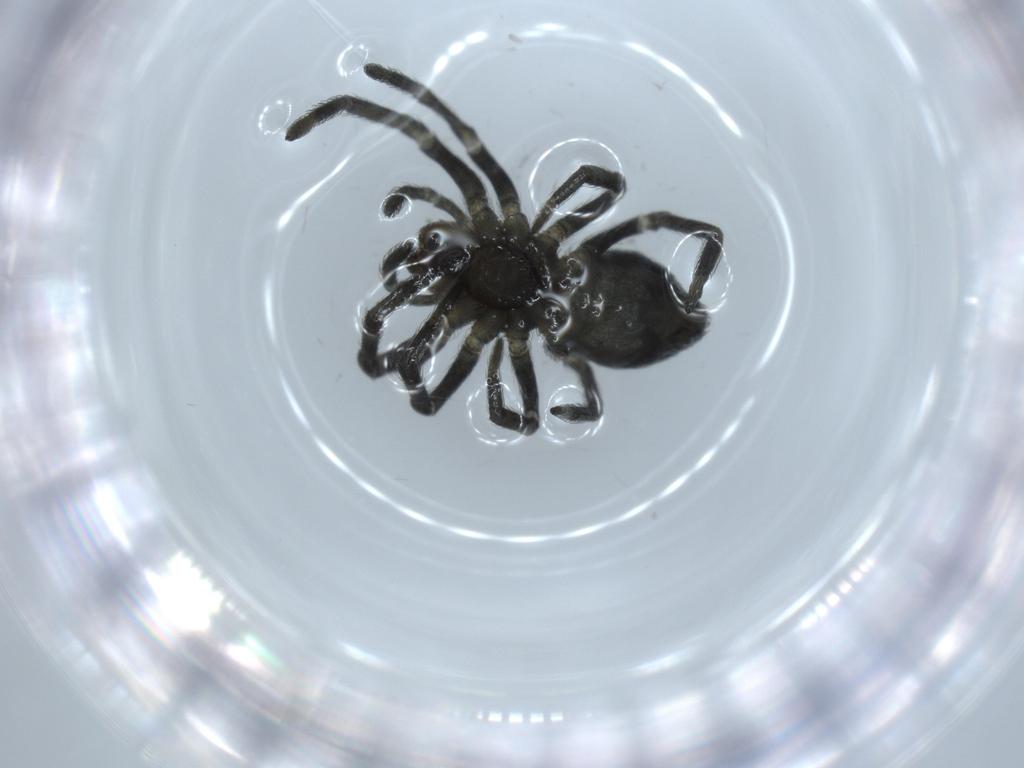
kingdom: Animalia
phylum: Arthropoda
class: Arachnida
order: Araneae
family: Dictynidae
